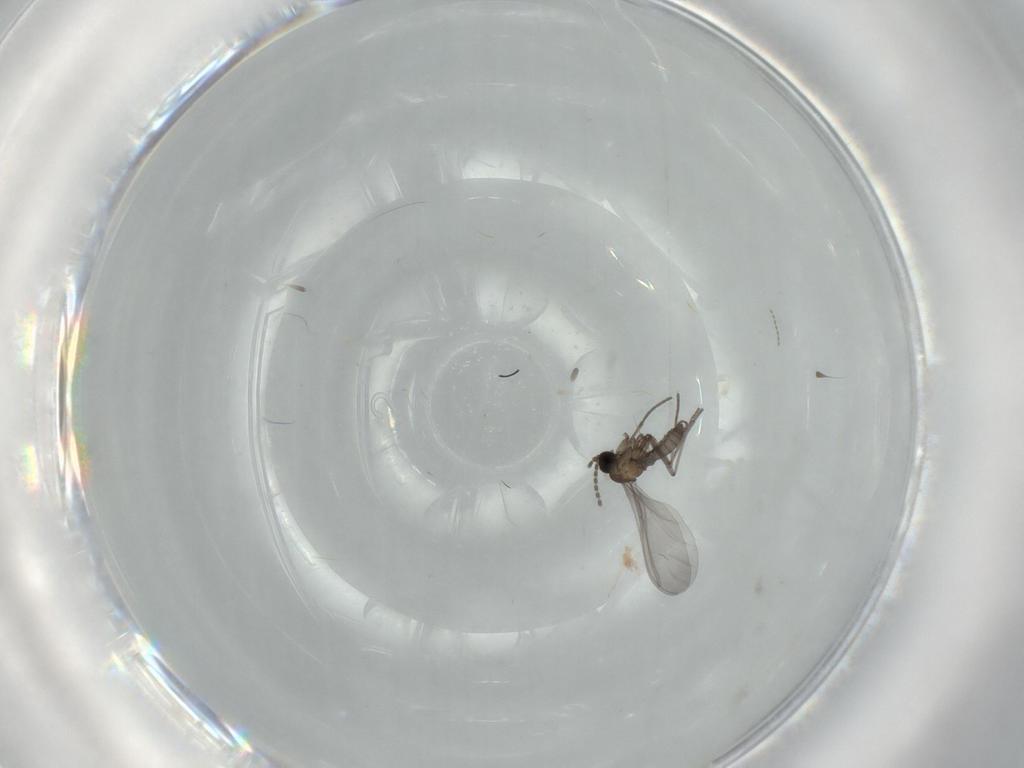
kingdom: Animalia
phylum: Arthropoda
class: Insecta
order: Diptera
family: Cecidomyiidae
